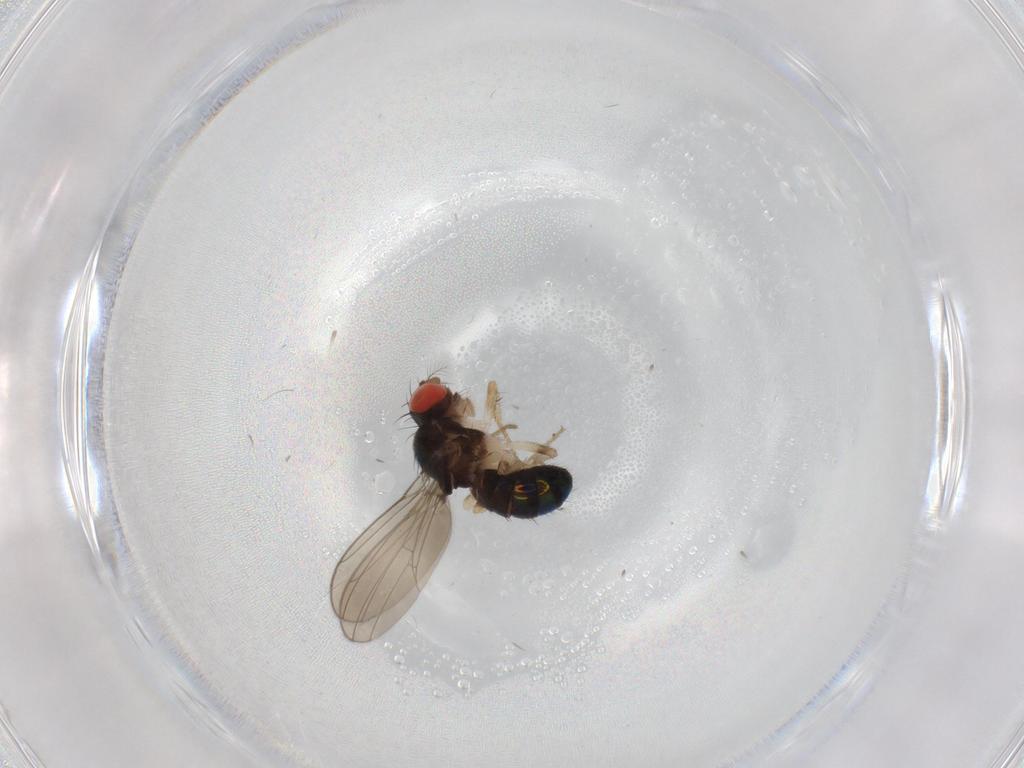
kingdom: Animalia
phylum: Arthropoda
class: Insecta
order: Diptera
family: Drosophilidae
